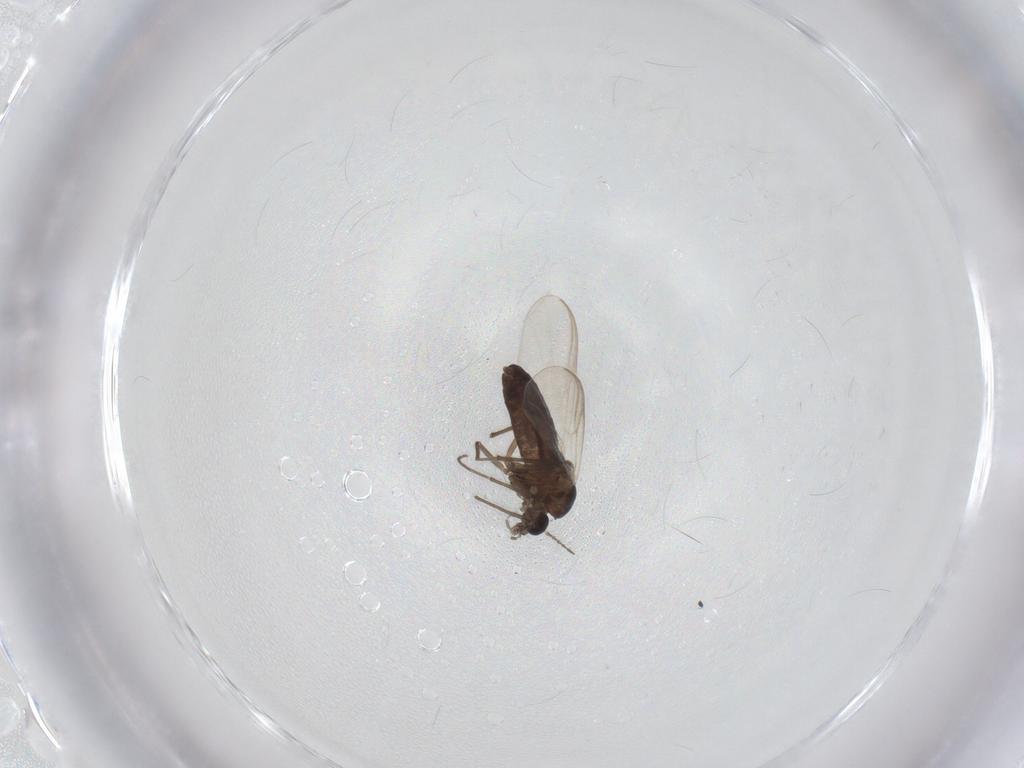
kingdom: Animalia
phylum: Arthropoda
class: Insecta
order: Diptera
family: Chironomidae
